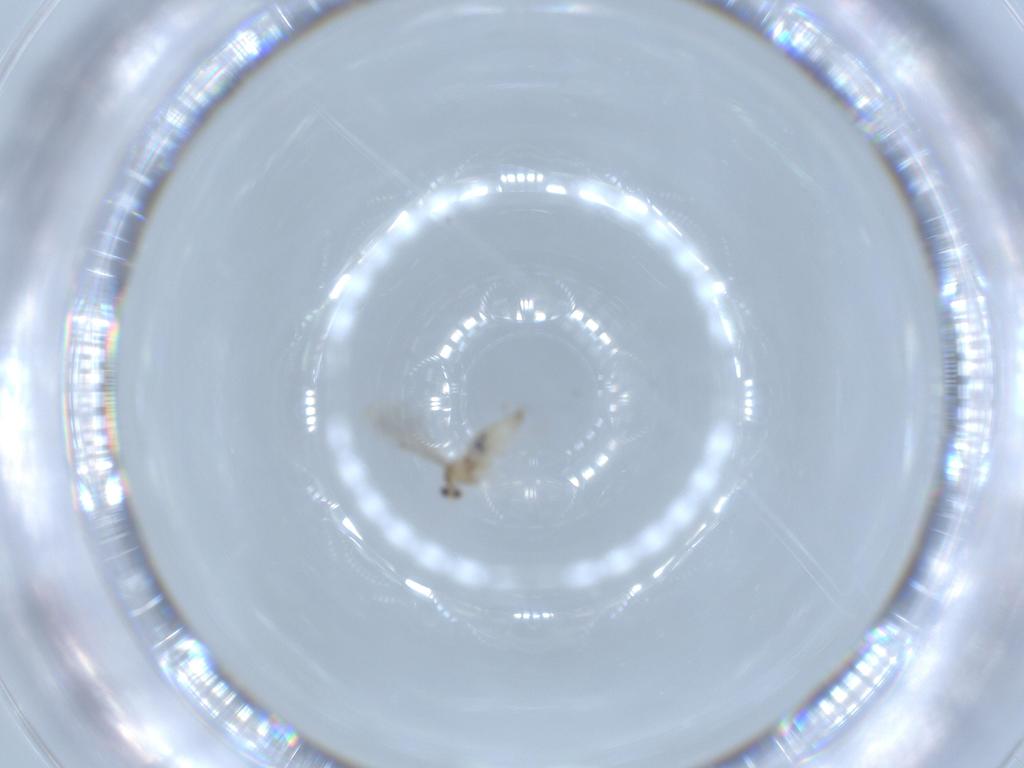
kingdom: Animalia
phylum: Arthropoda
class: Insecta
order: Diptera
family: Cecidomyiidae
